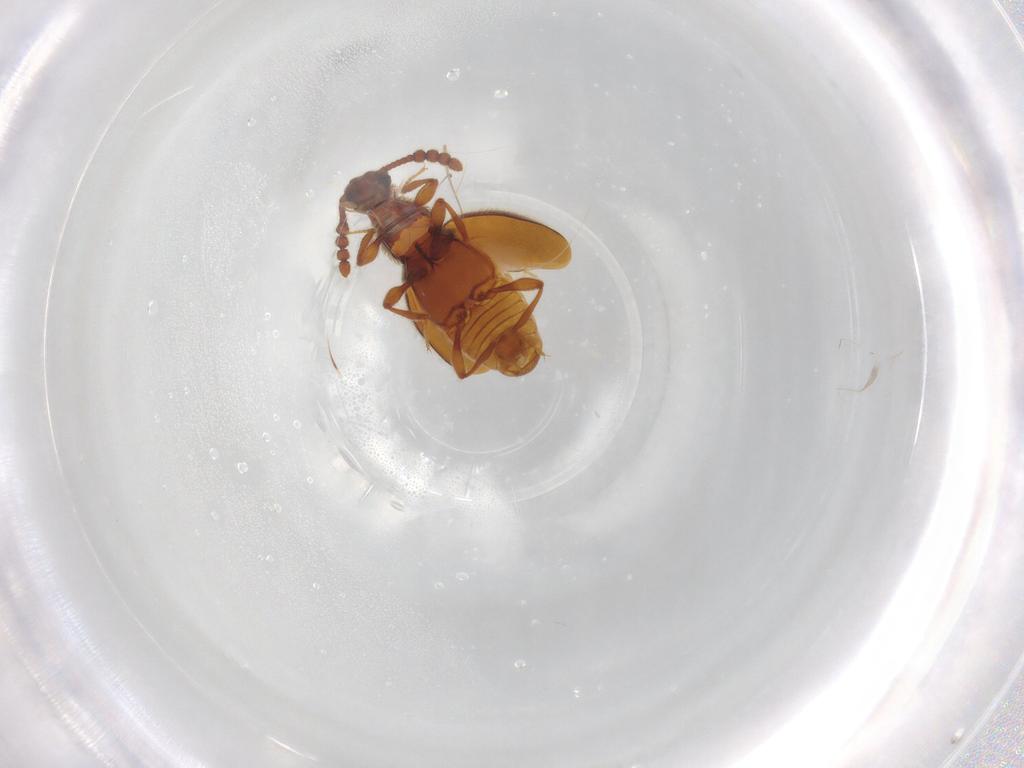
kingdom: Animalia
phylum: Arthropoda
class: Insecta
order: Coleoptera
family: Staphylinidae
